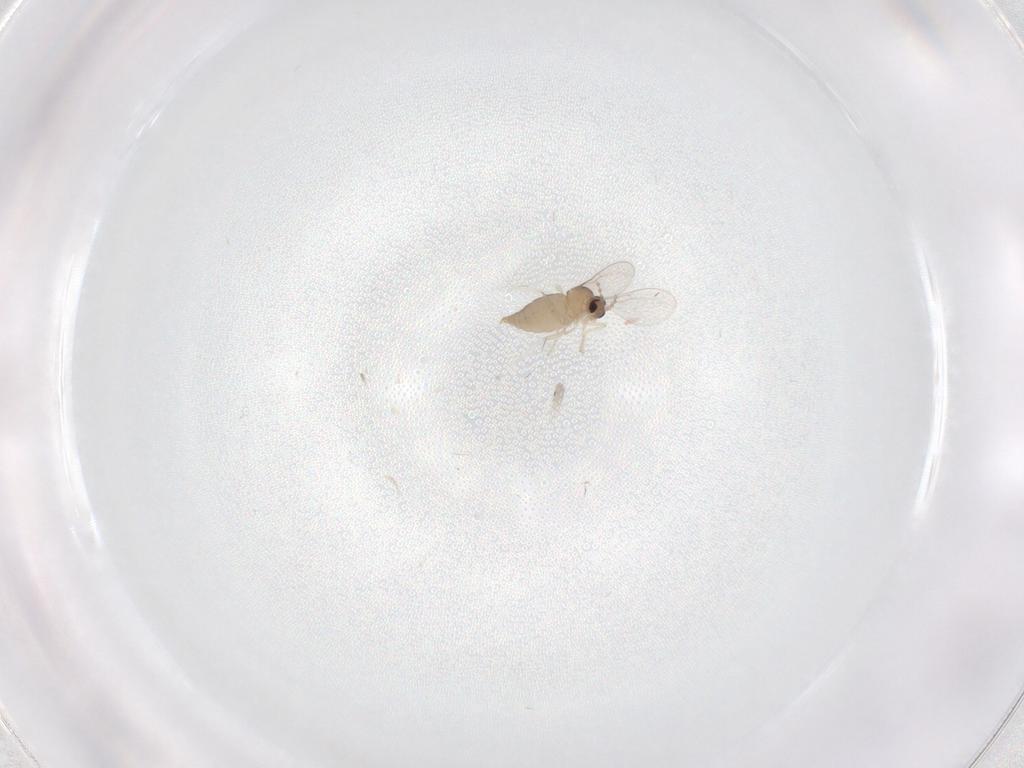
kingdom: Animalia
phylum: Arthropoda
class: Insecta
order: Diptera
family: Cecidomyiidae
